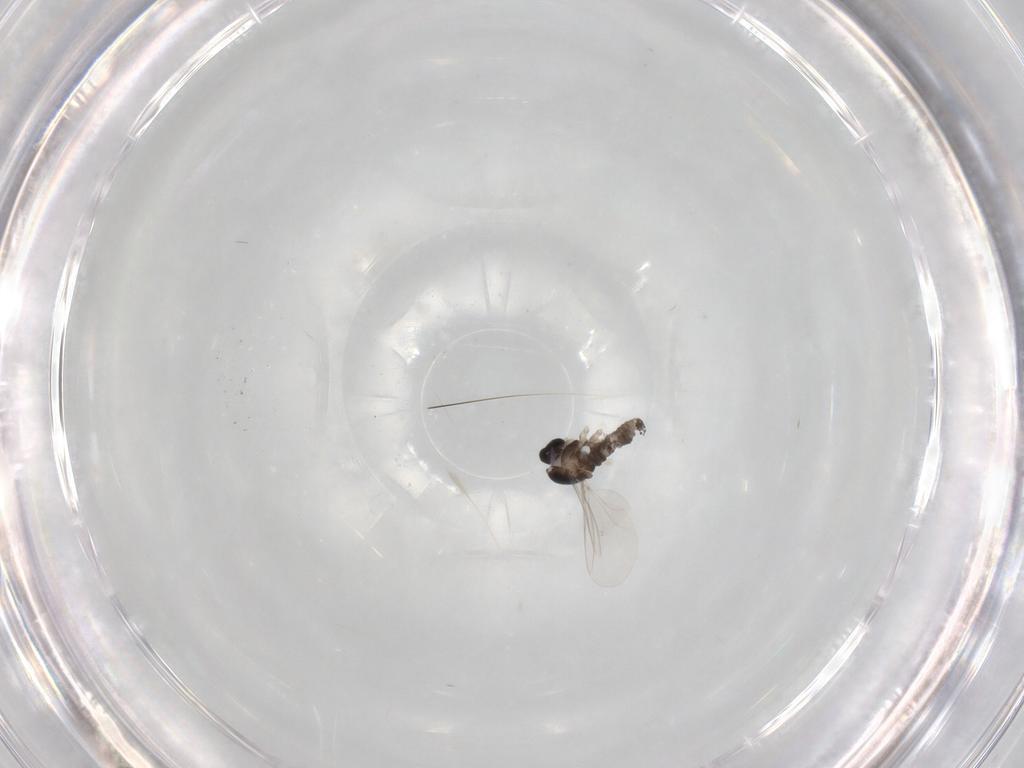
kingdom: Animalia
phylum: Arthropoda
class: Insecta
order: Diptera
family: Cecidomyiidae
